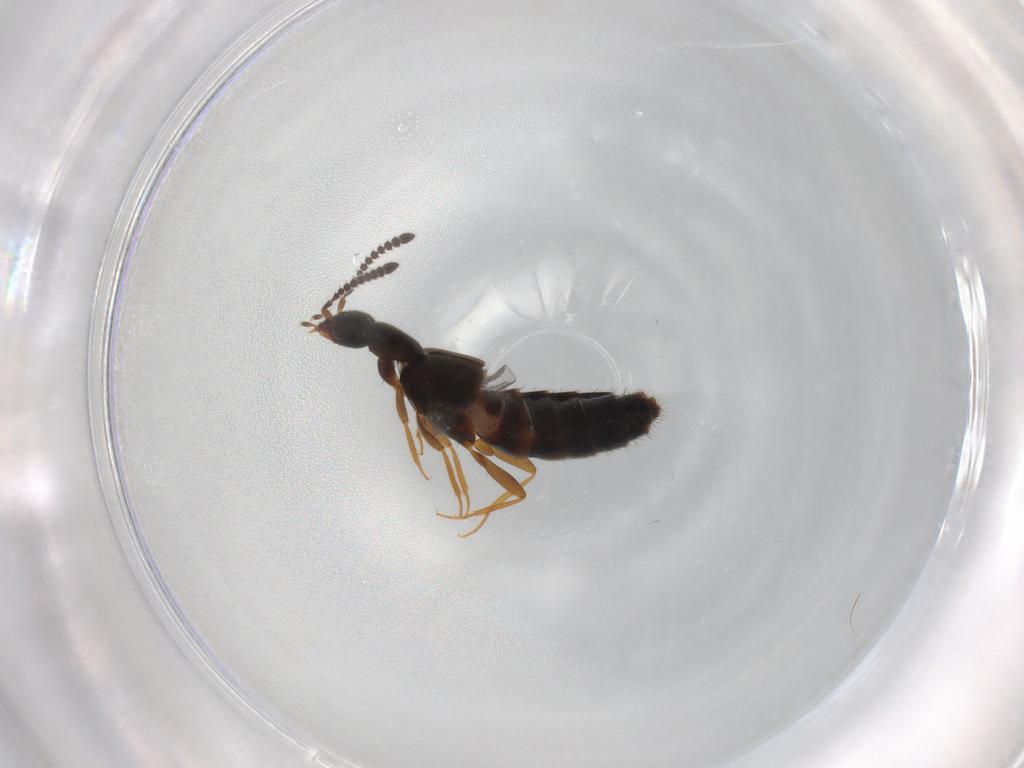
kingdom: Animalia
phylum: Arthropoda
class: Insecta
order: Coleoptera
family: Staphylinidae
